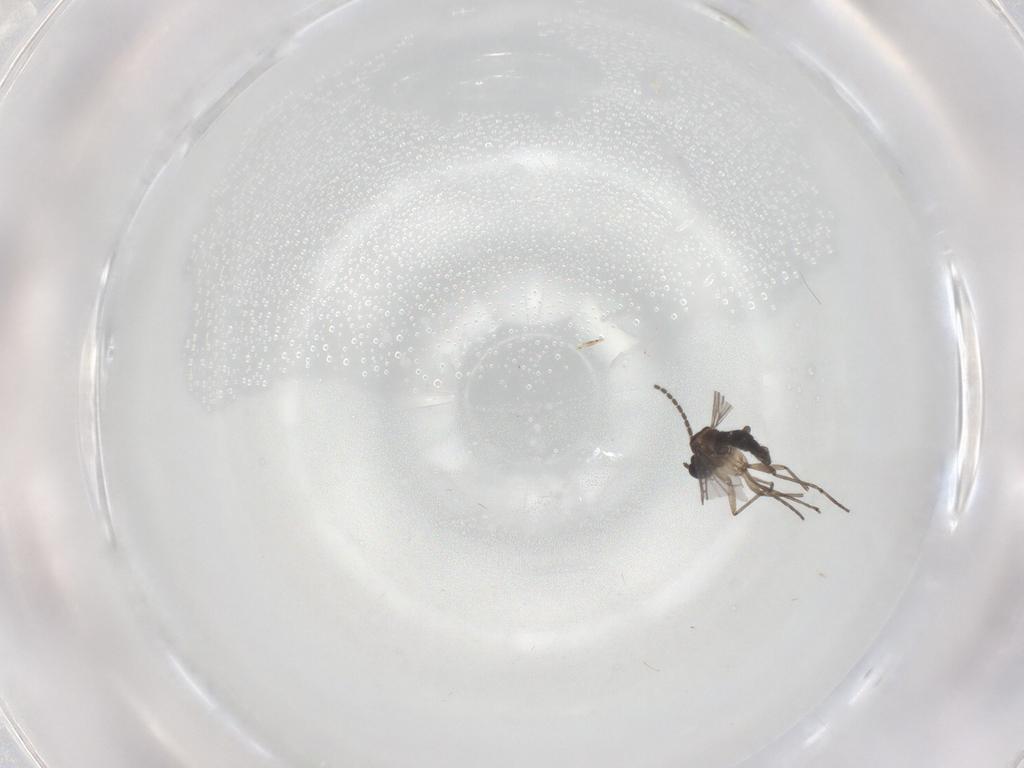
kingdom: Animalia
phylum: Arthropoda
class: Insecta
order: Diptera
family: Sciaridae
